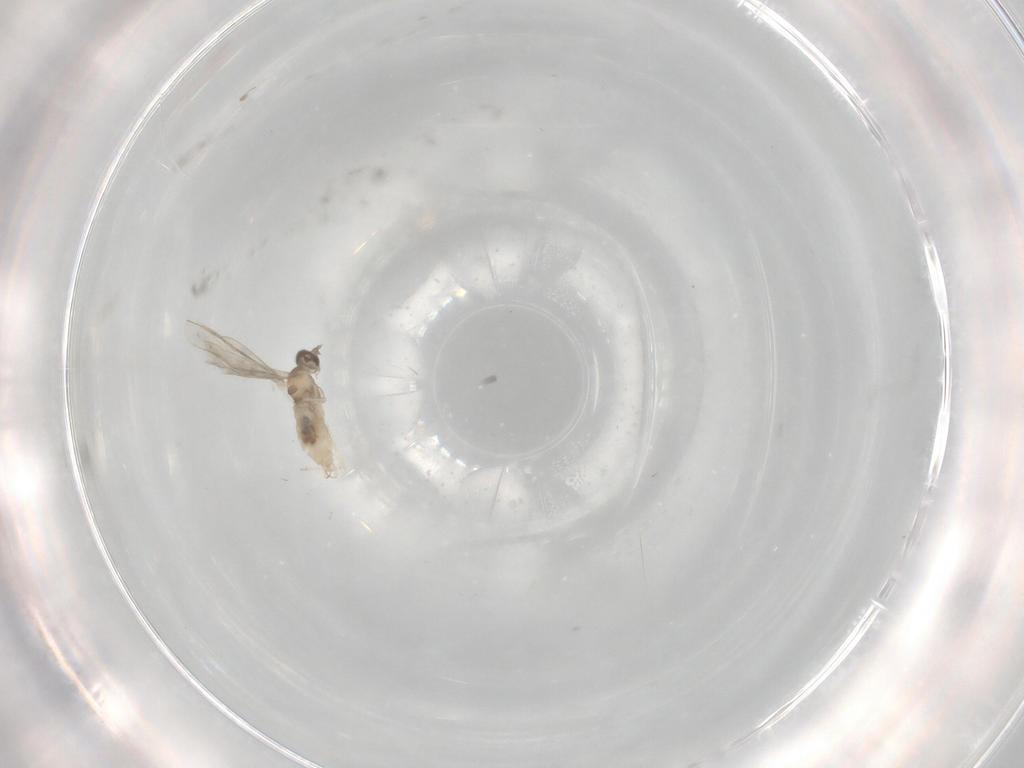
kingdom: Animalia
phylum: Arthropoda
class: Insecta
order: Diptera
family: Cecidomyiidae
